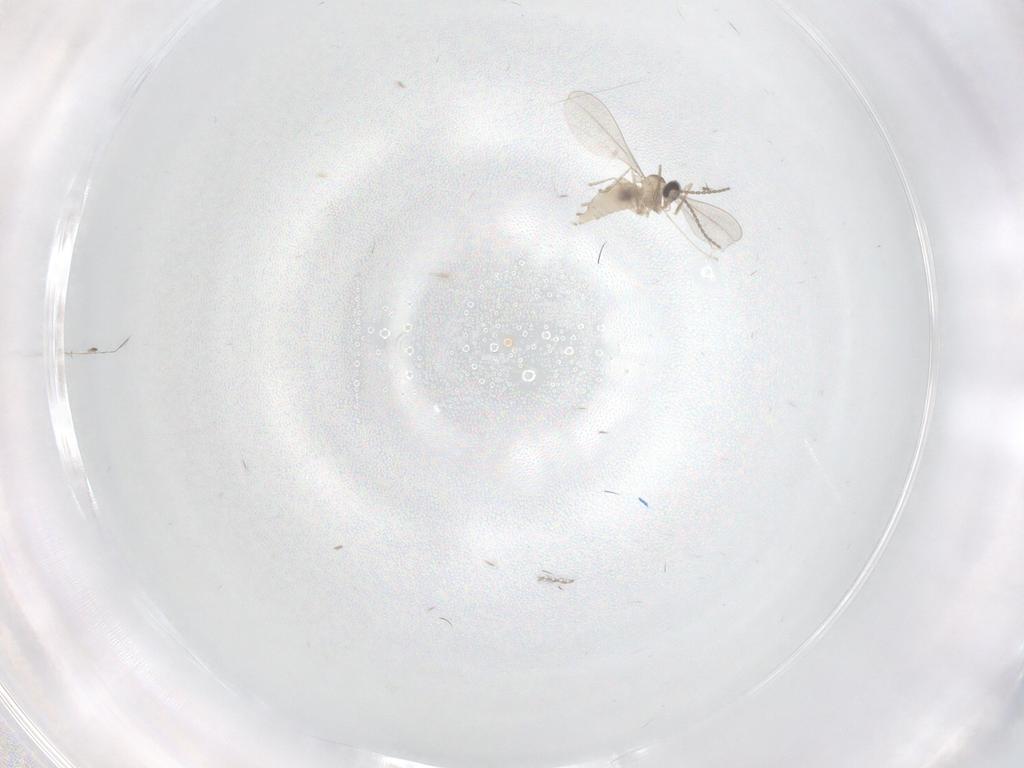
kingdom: Animalia
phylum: Arthropoda
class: Insecta
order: Diptera
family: Cecidomyiidae
